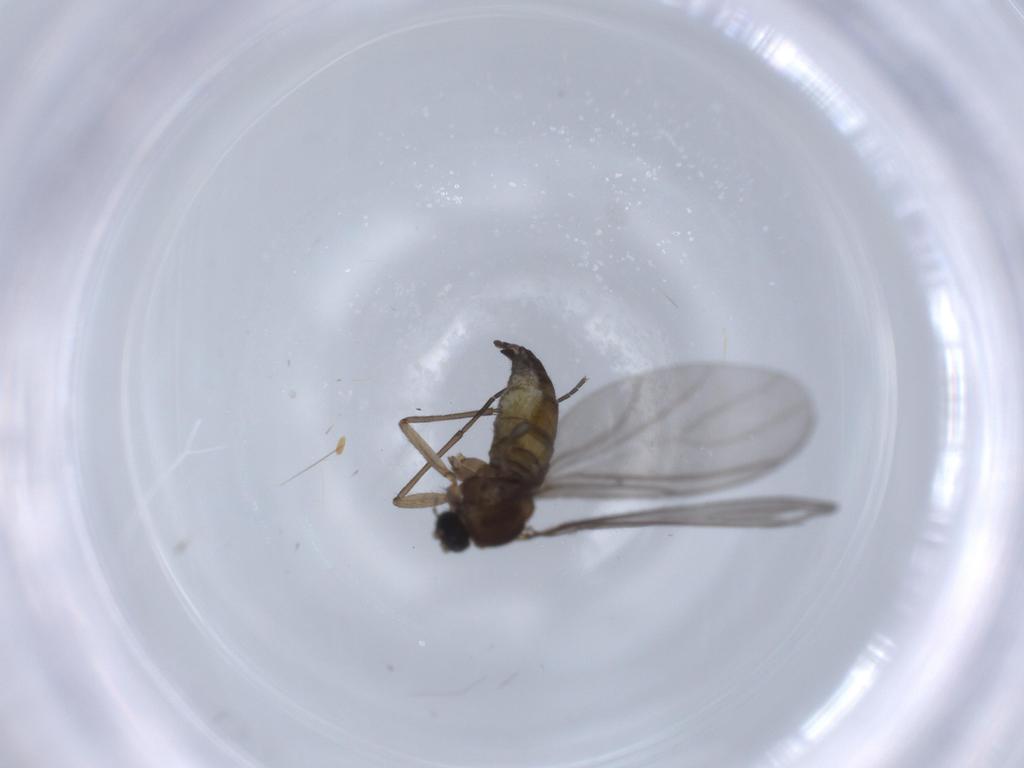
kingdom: Animalia
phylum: Arthropoda
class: Insecta
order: Diptera
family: Sciaridae
